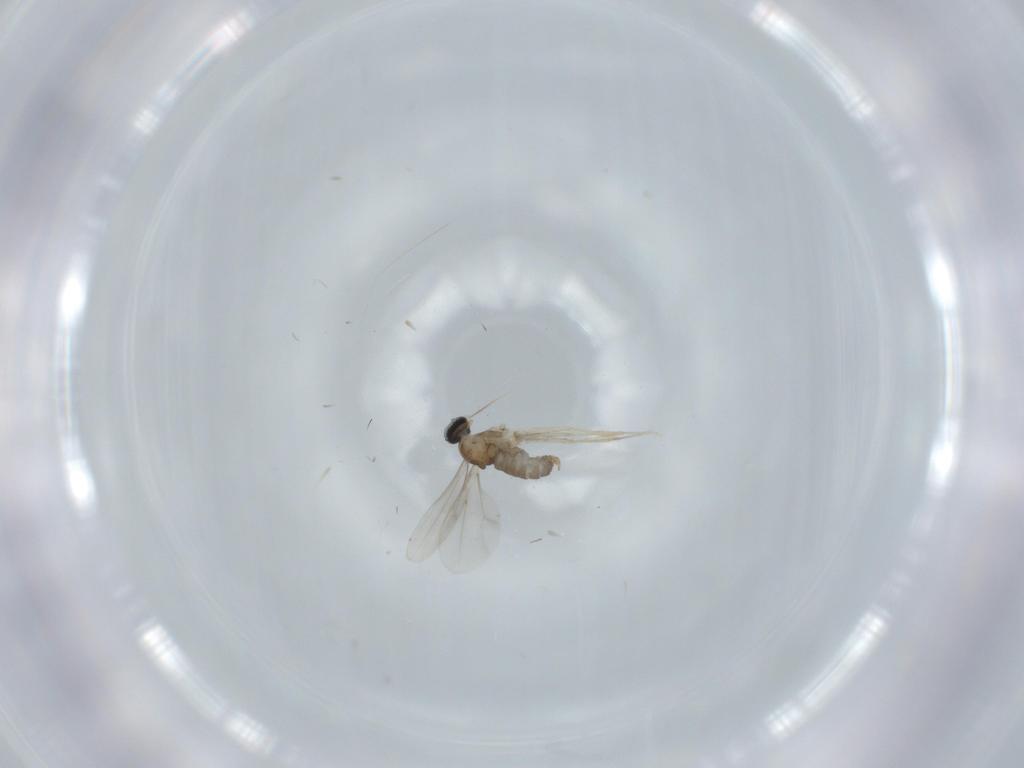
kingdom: Animalia
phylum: Arthropoda
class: Insecta
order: Diptera
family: Cecidomyiidae
